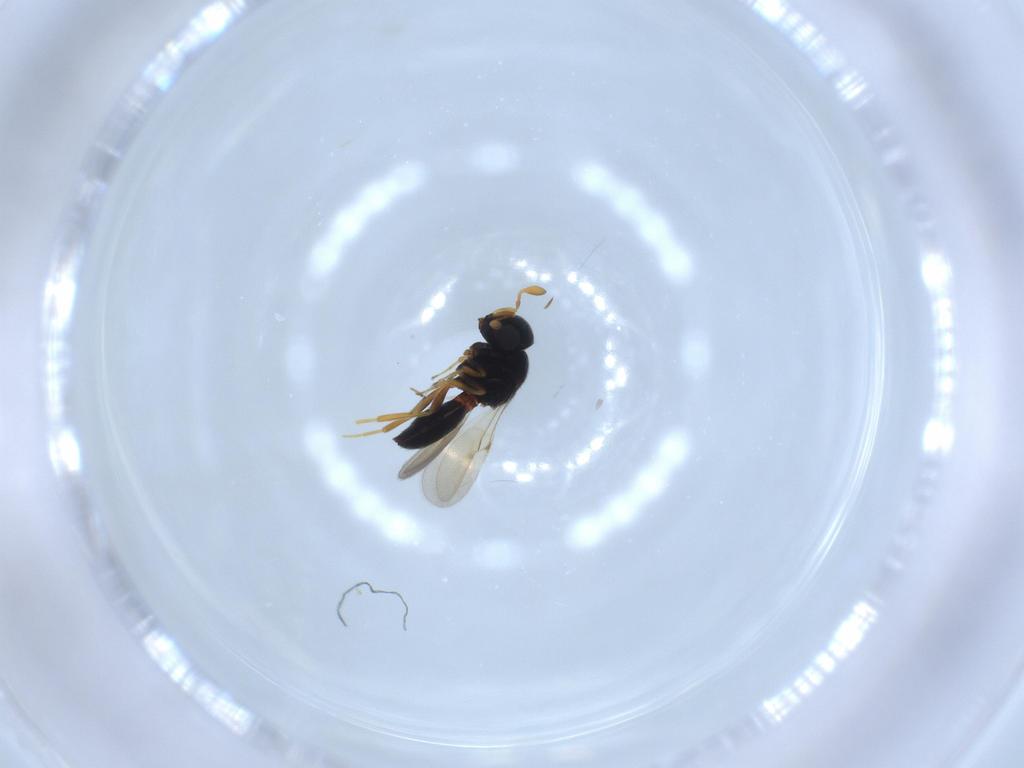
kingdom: Animalia
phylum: Arthropoda
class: Insecta
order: Hymenoptera
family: Scelionidae
